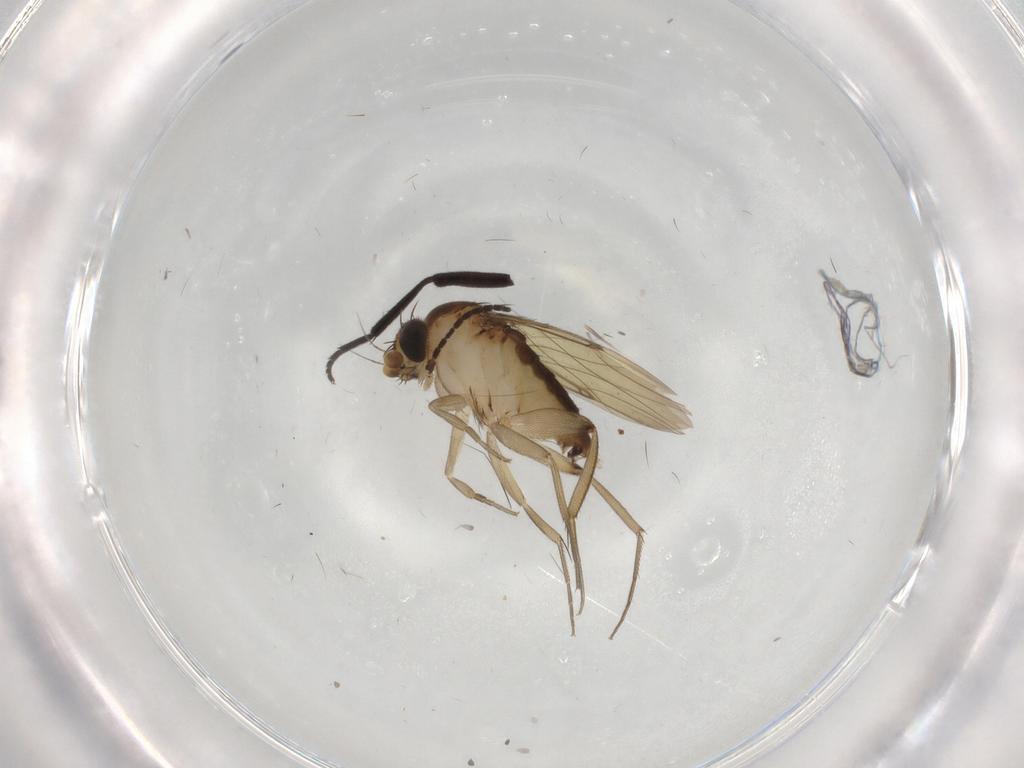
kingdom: Animalia
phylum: Arthropoda
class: Insecta
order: Diptera
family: Agromyzidae
